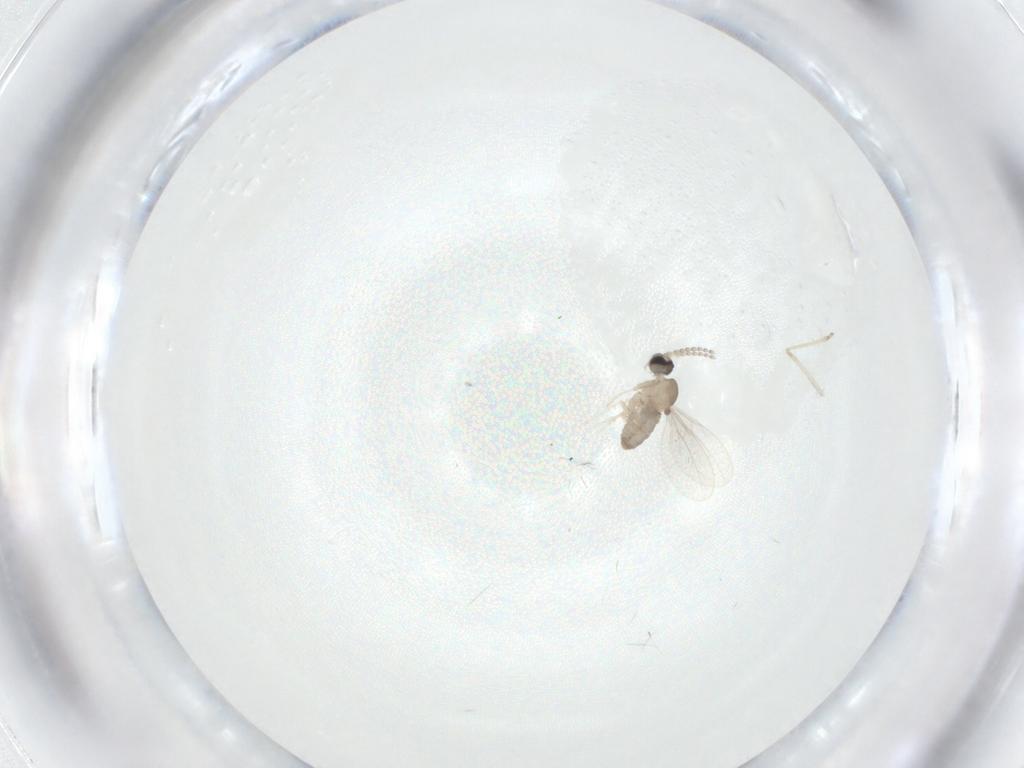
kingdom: Animalia
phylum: Arthropoda
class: Insecta
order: Diptera
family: Cecidomyiidae
